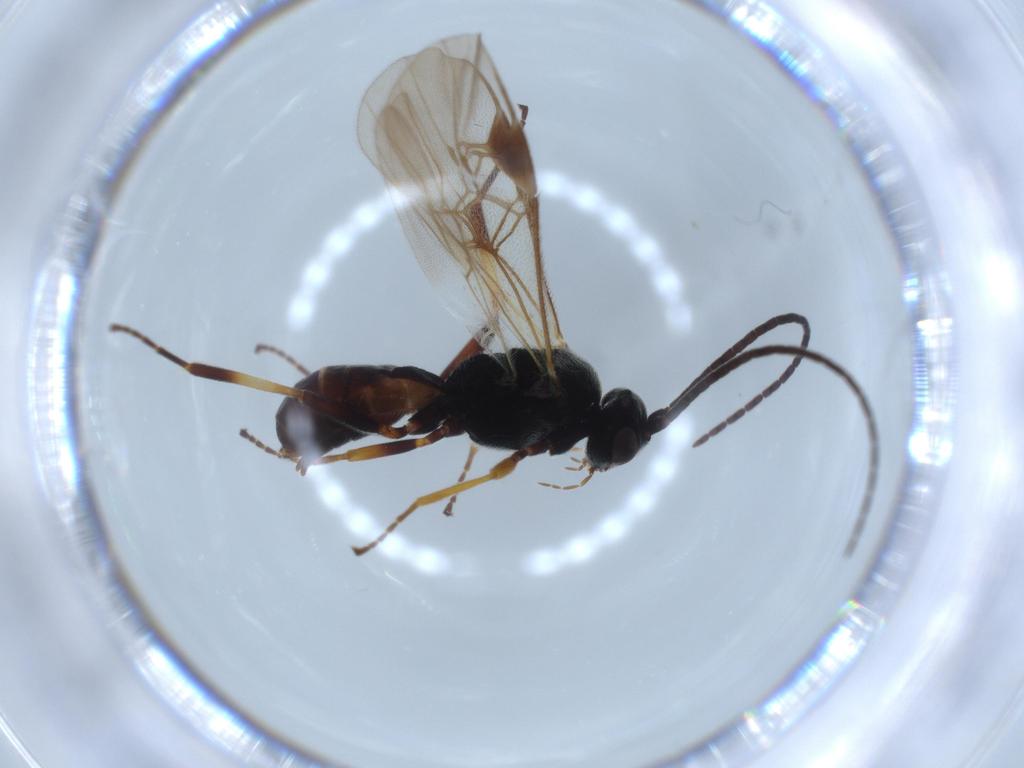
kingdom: Animalia
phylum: Arthropoda
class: Insecta
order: Hymenoptera
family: Braconidae
